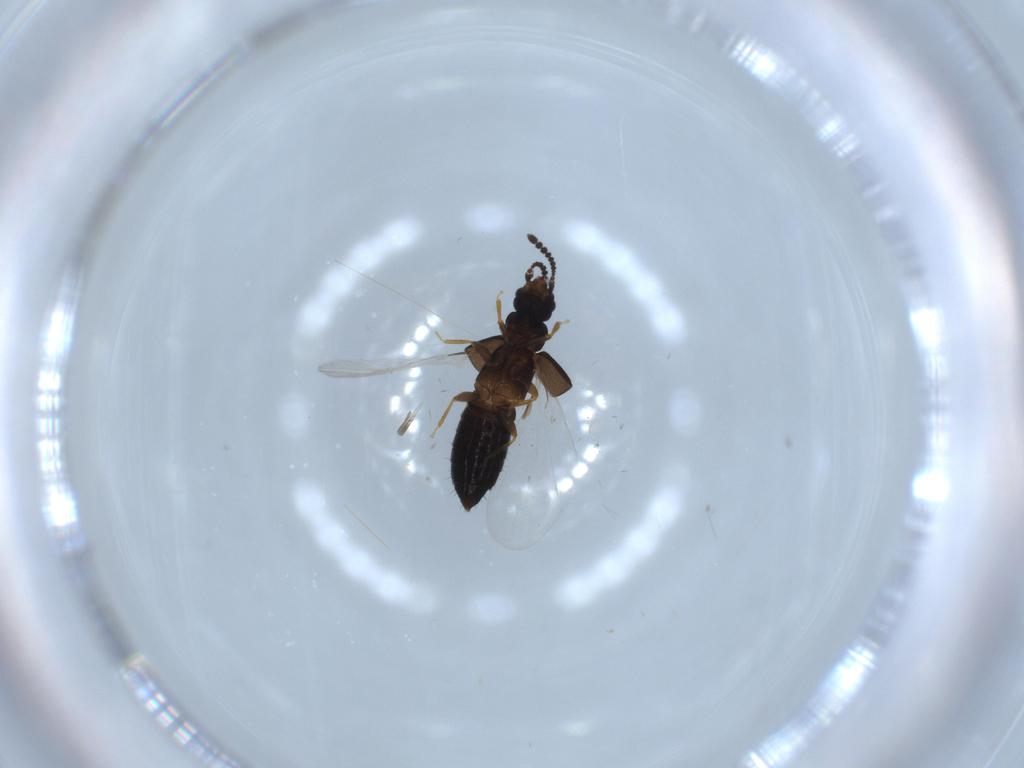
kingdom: Animalia
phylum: Arthropoda
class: Insecta
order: Coleoptera
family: Staphylinidae
